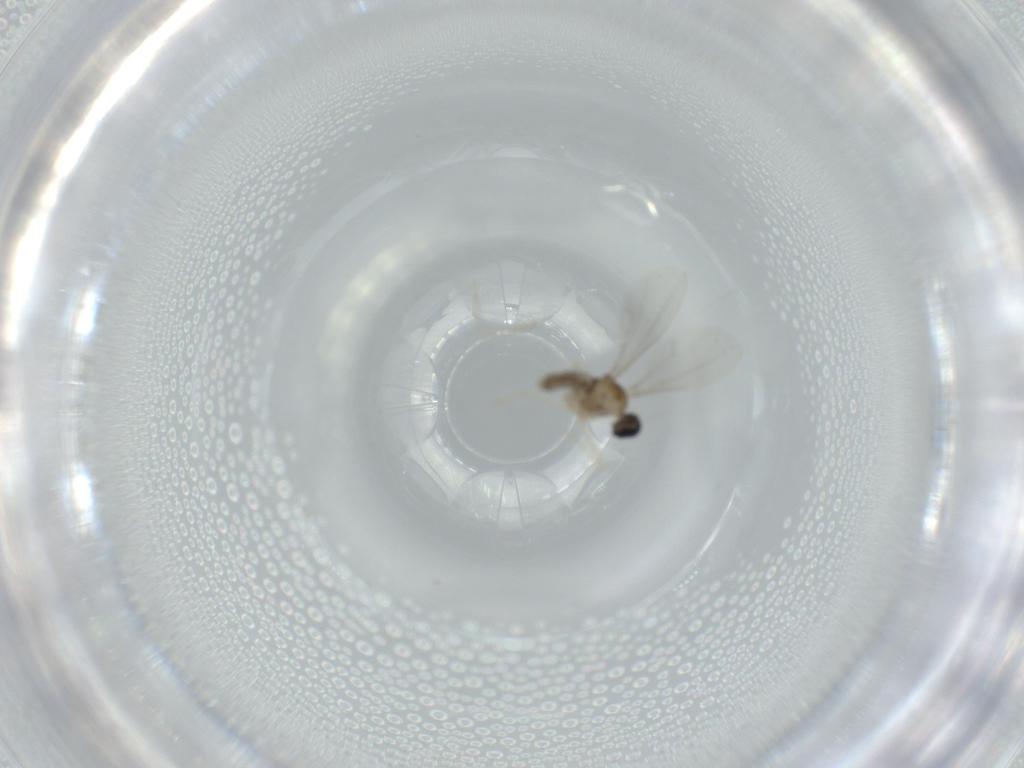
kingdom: Animalia
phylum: Arthropoda
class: Insecta
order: Diptera
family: Cecidomyiidae
